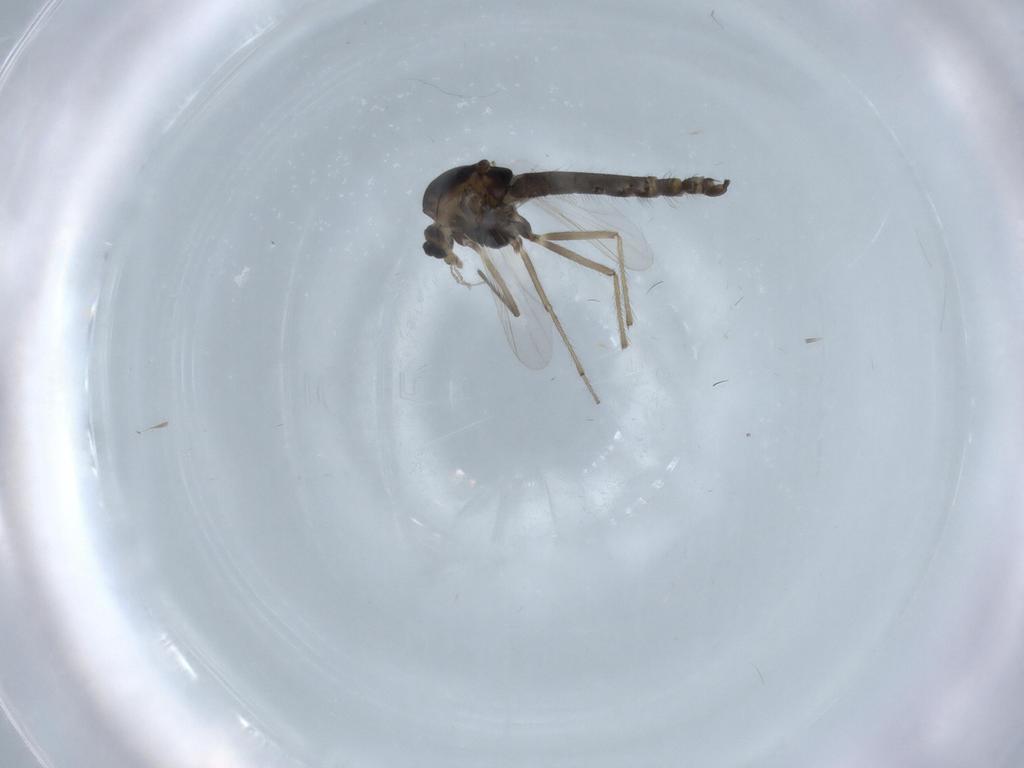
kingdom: Animalia
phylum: Arthropoda
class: Insecta
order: Diptera
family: Chironomidae
